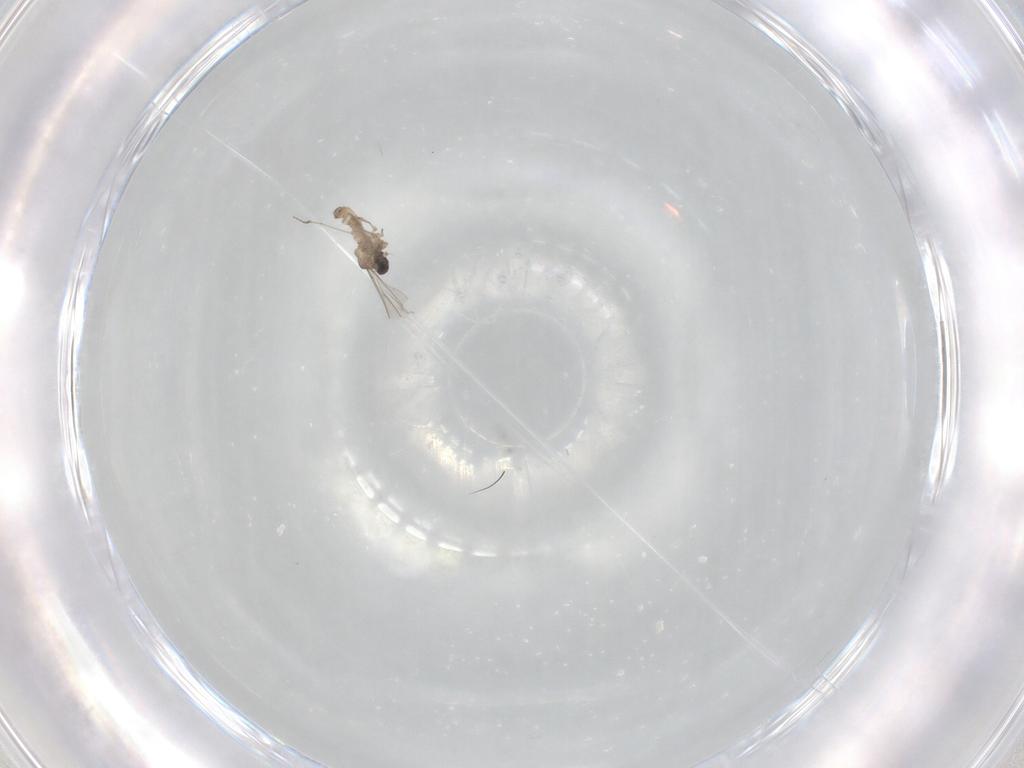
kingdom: Animalia
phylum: Arthropoda
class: Insecta
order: Diptera
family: Cecidomyiidae
